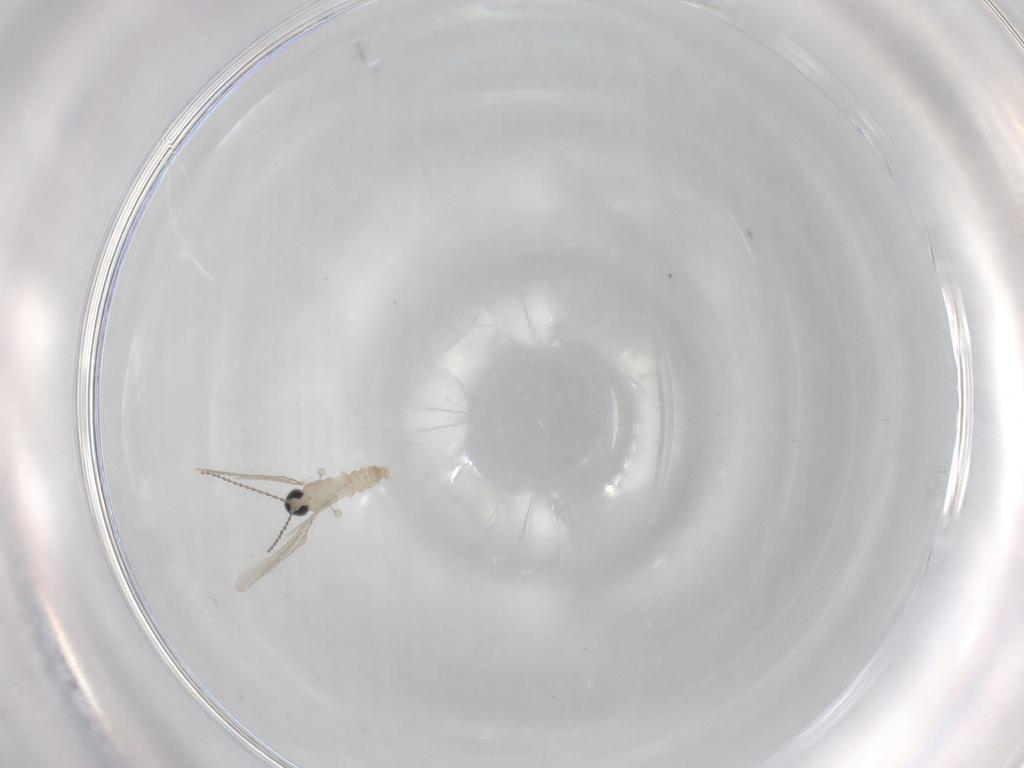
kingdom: Animalia
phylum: Arthropoda
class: Insecta
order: Diptera
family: Cecidomyiidae
